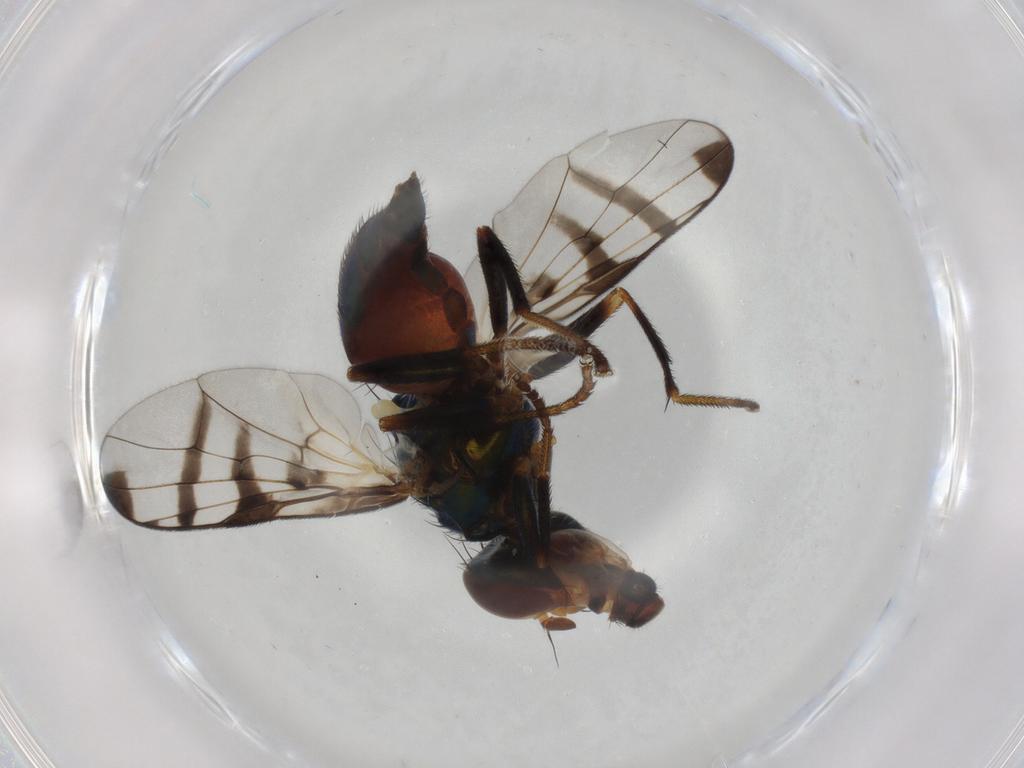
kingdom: Animalia
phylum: Arthropoda
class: Insecta
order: Diptera
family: Platystomatidae
